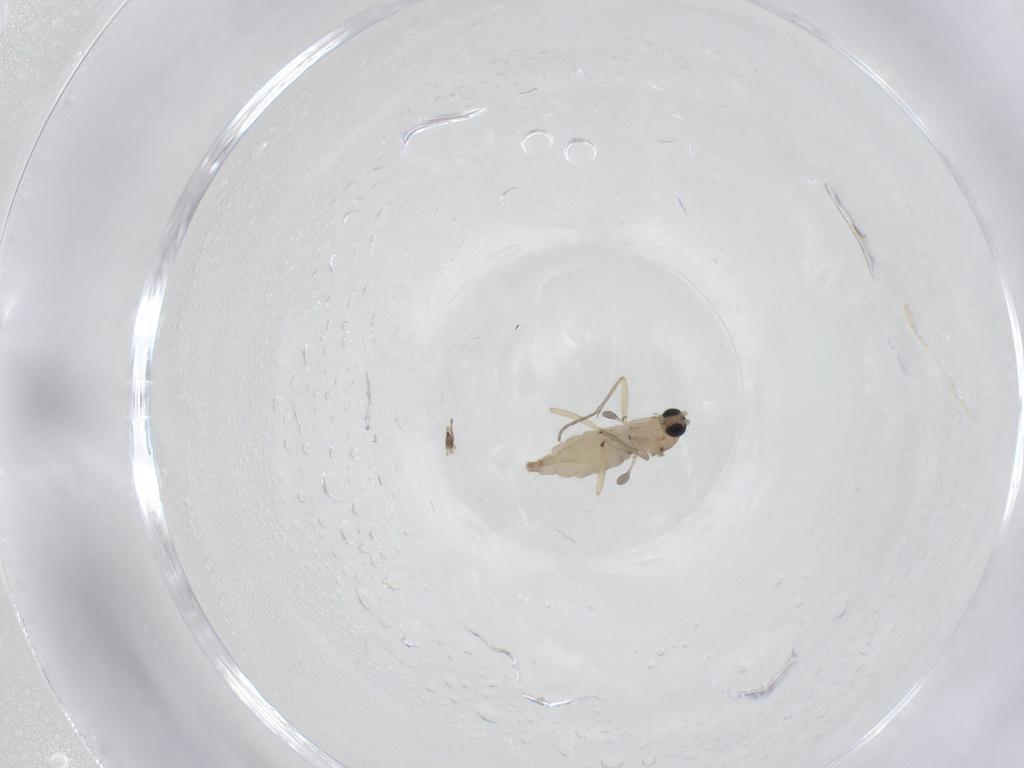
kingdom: Animalia
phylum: Arthropoda
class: Insecta
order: Diptera
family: Sciaridae
